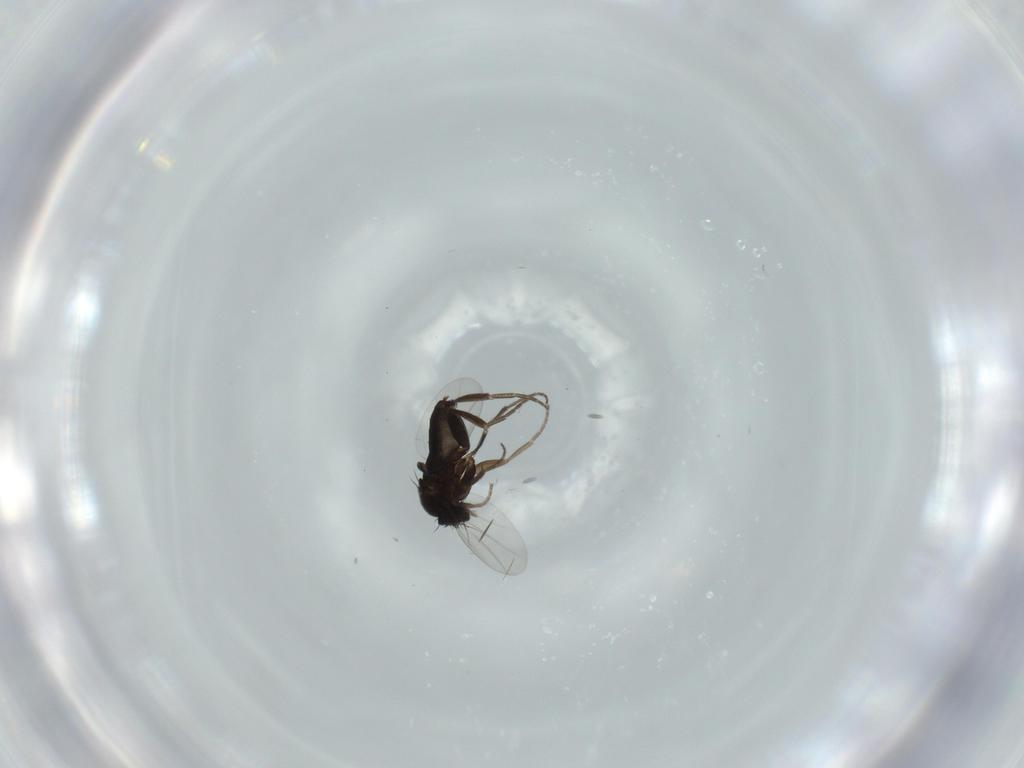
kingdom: Animalia
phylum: Arthropoda
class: Insecta
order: Diptera
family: Phoridae
